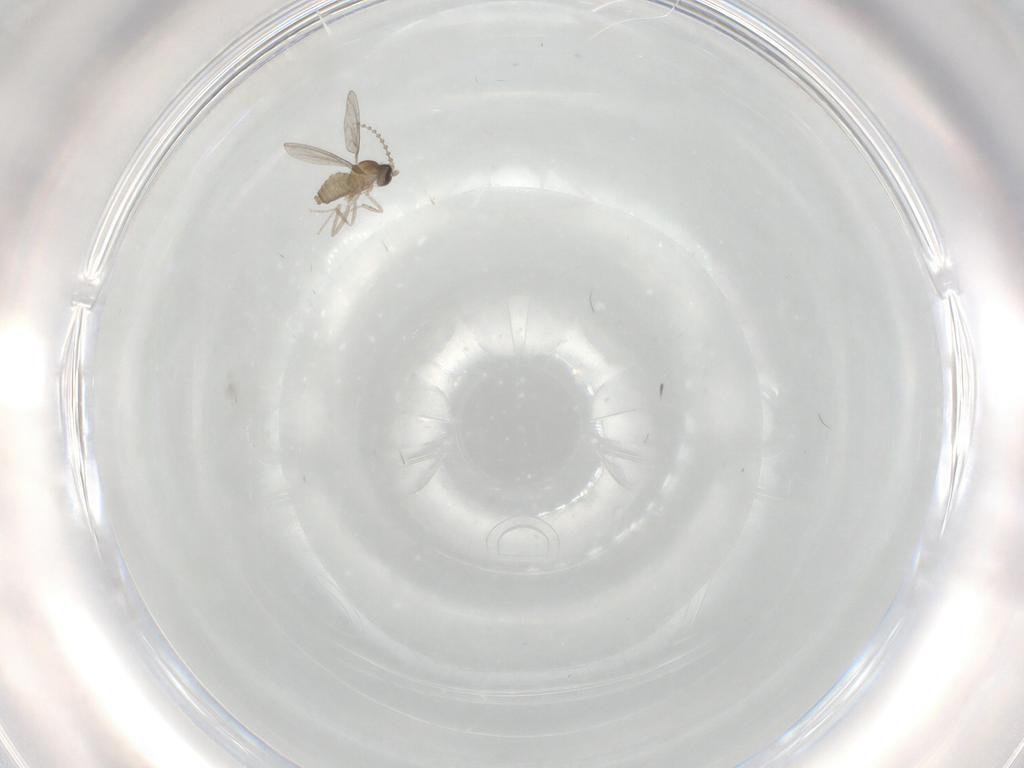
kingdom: Animalia
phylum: Arthropoda
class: Insecta
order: Diptera
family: Cecidomyiidae
